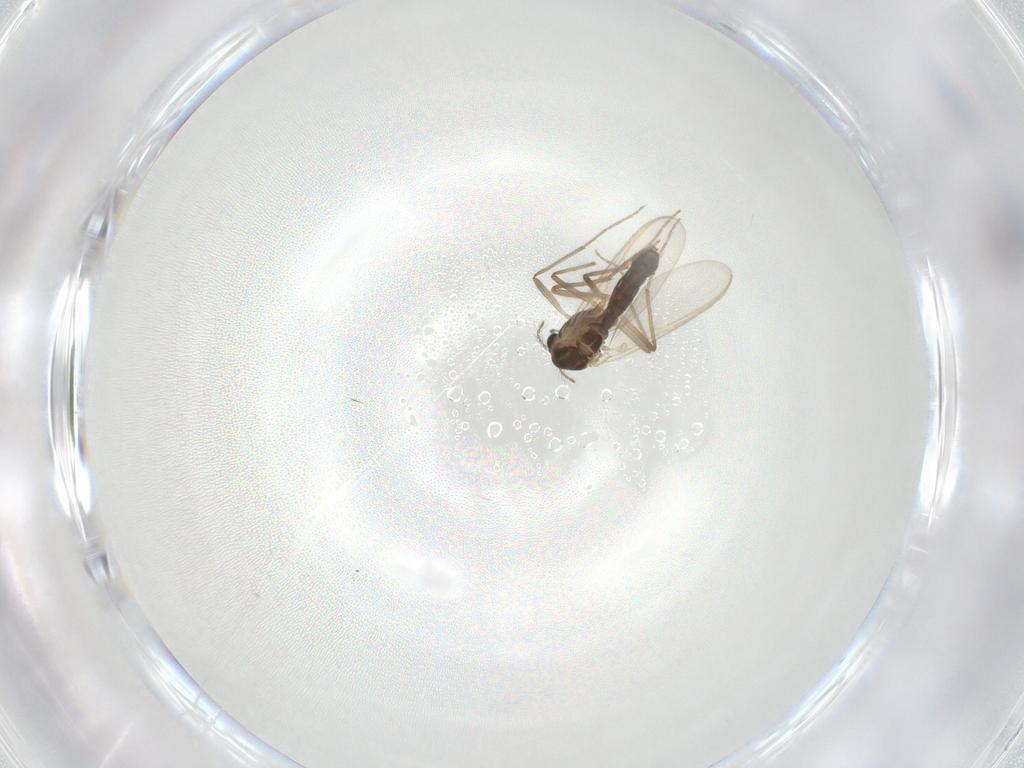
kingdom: Animalia
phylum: Arthropoda
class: Insecta
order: Diptera
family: Chironomidae
